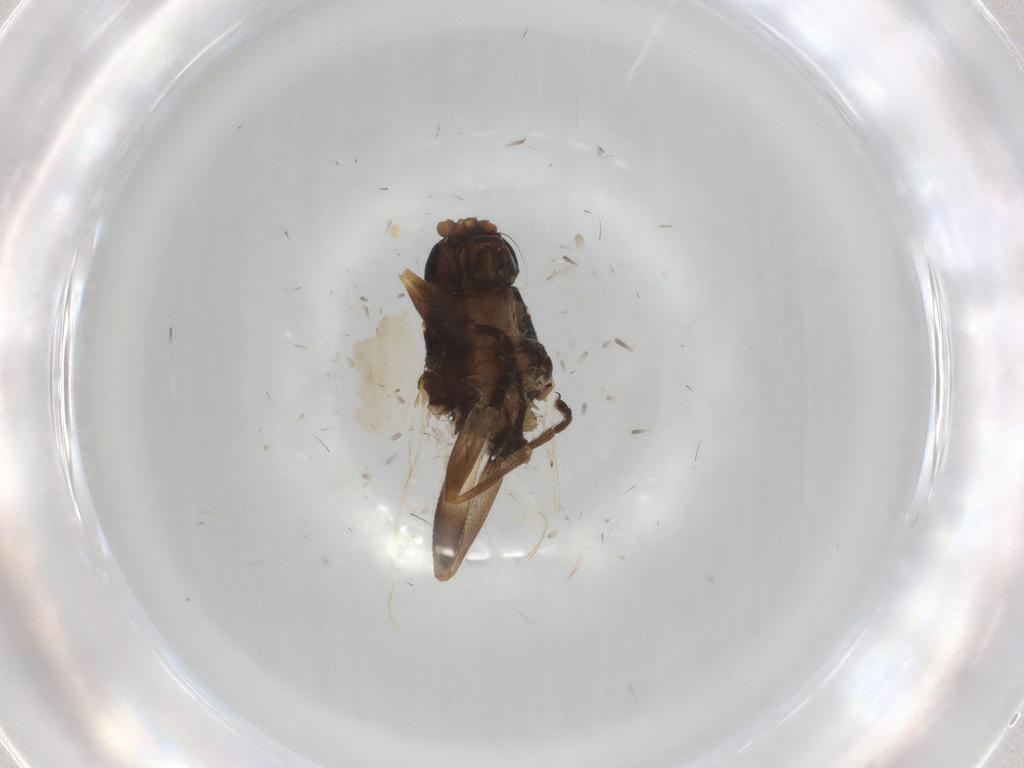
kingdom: Animalia
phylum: Arthropoda
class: Insecta
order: Diptera
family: Sphaeroceridae
